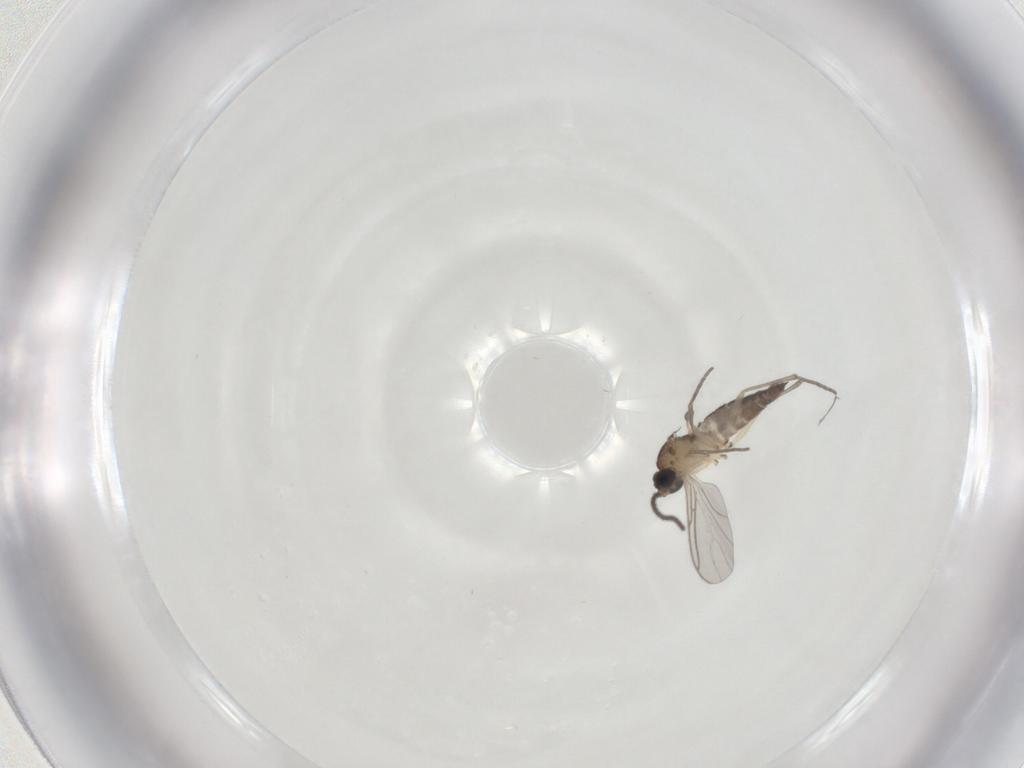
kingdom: Animalia
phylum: Arthropoda
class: Insecta
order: Diptera
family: Sciaridae
